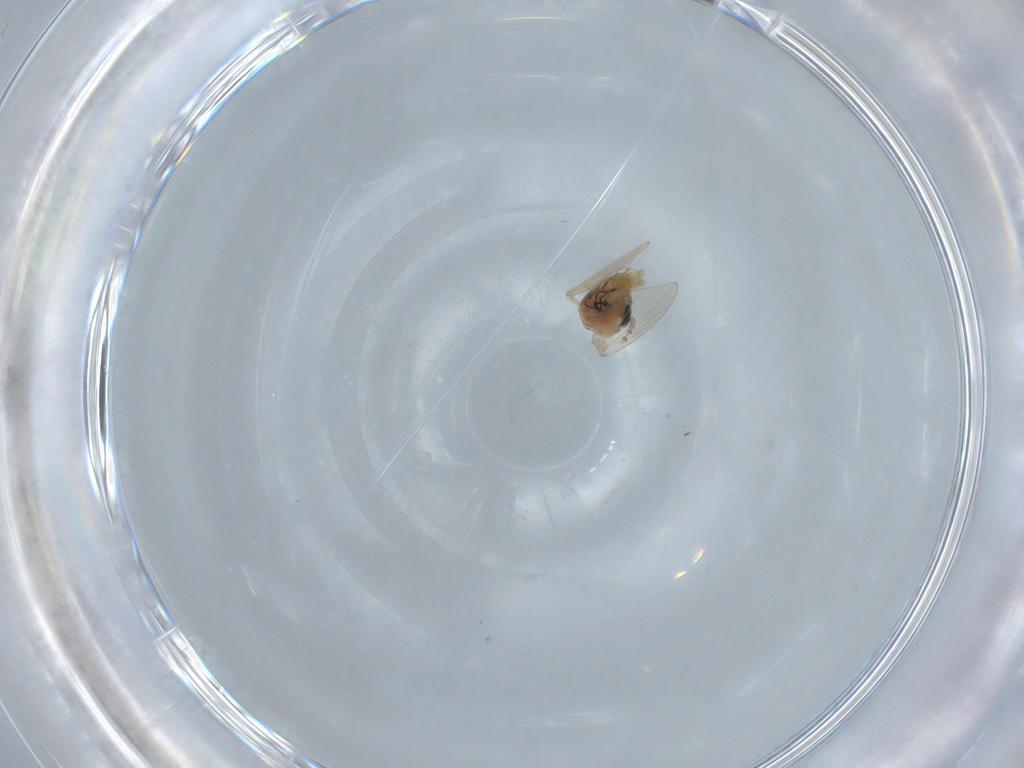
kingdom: Animalia
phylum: Arthropoda
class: Insecta
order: Diptera
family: Sphaeroceridae
